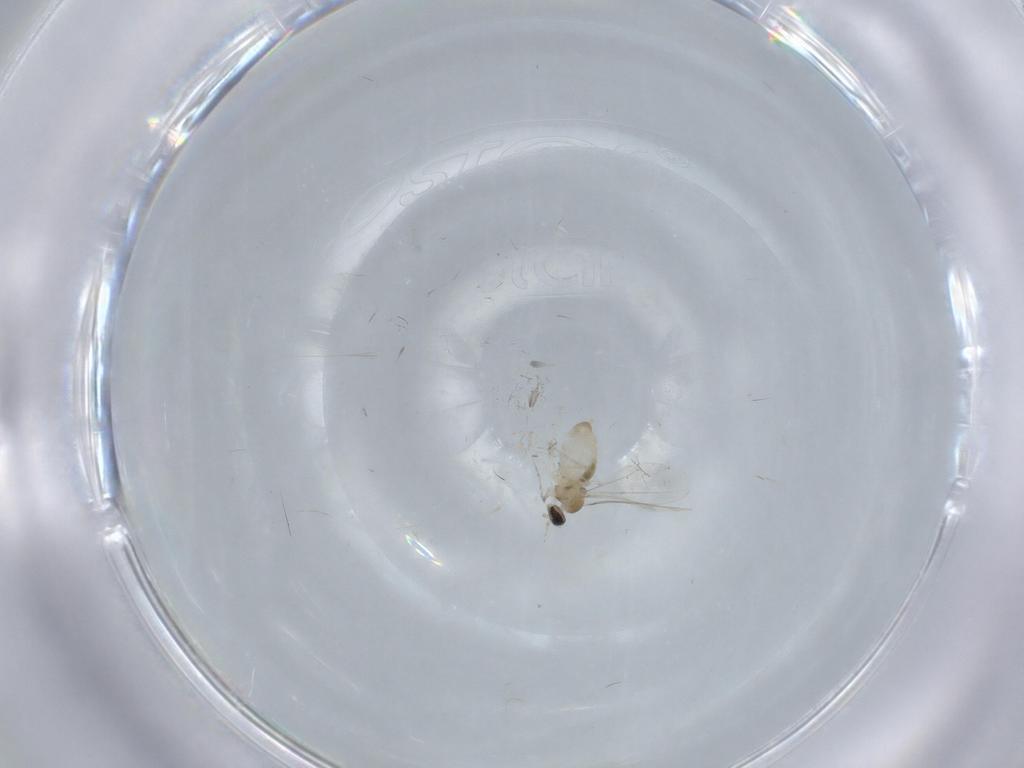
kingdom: Animalia
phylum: Arthropoda
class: Insecta
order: Diptera
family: Cecidomyiidae
